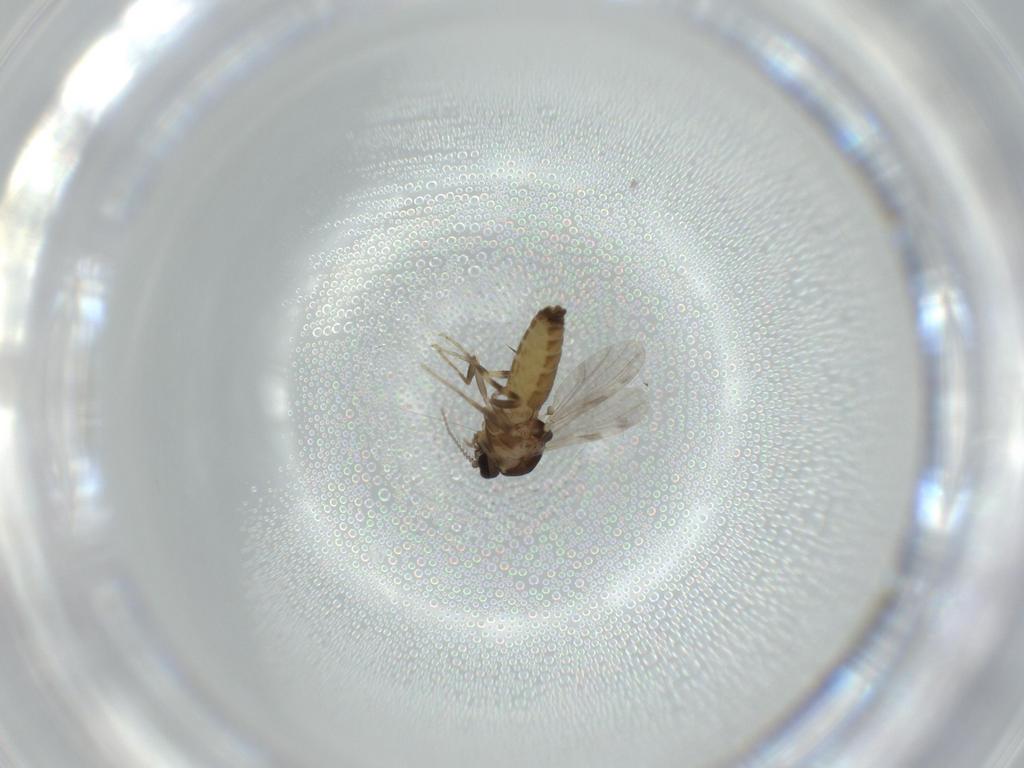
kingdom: Animalia
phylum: Arthropoda
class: Insecta
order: Diptera
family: Ceratopogonidae
